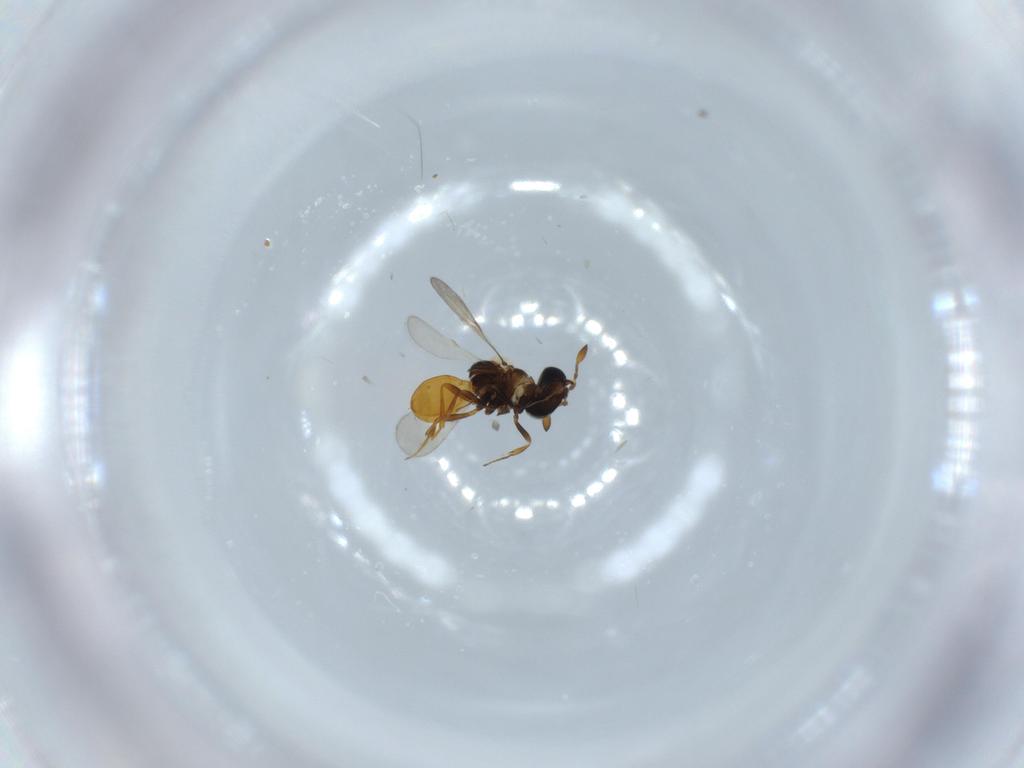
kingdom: Animalia
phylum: Arthropoda
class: Insecta
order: Hymenoptera
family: Scelionidae
